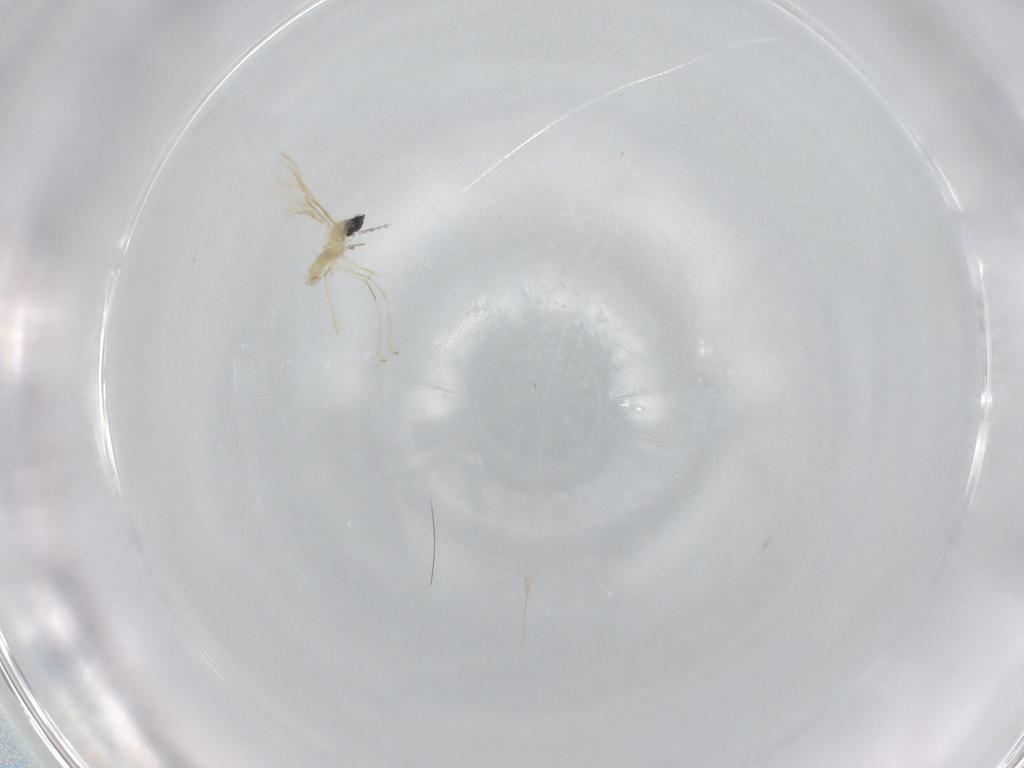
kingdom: Animalia
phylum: Arthropoda
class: Insecta
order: Diptera
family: Cecidomyiidae
